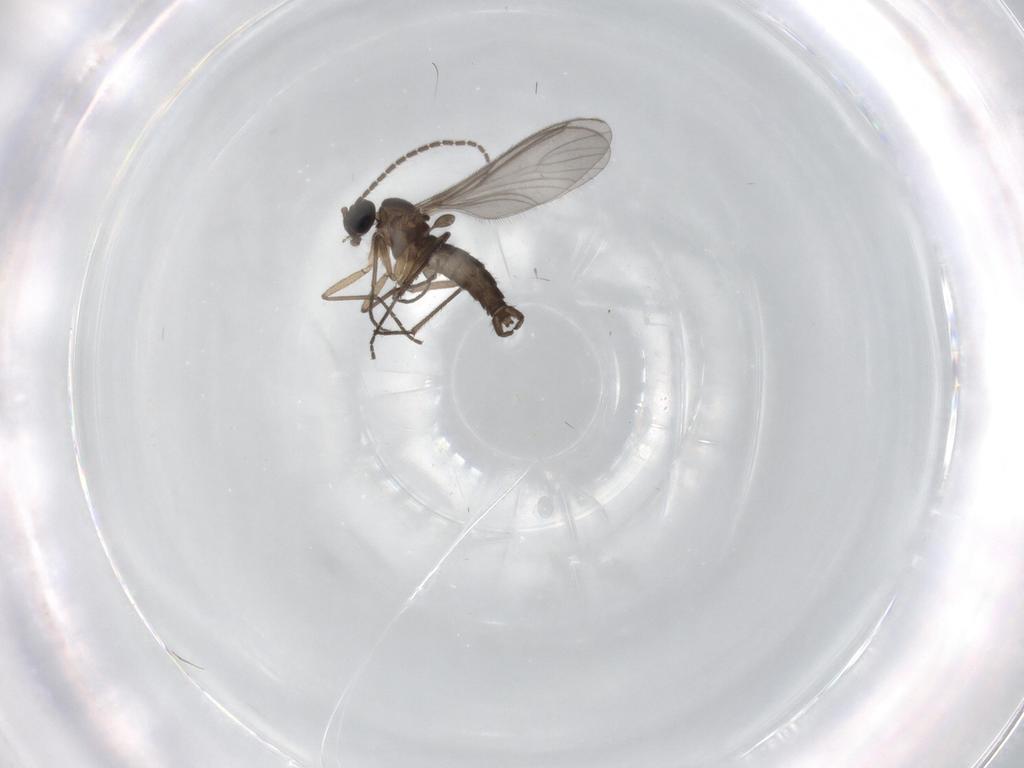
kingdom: Animalia
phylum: Arthropoda
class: Insecta
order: Diptera
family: Sciaridae
